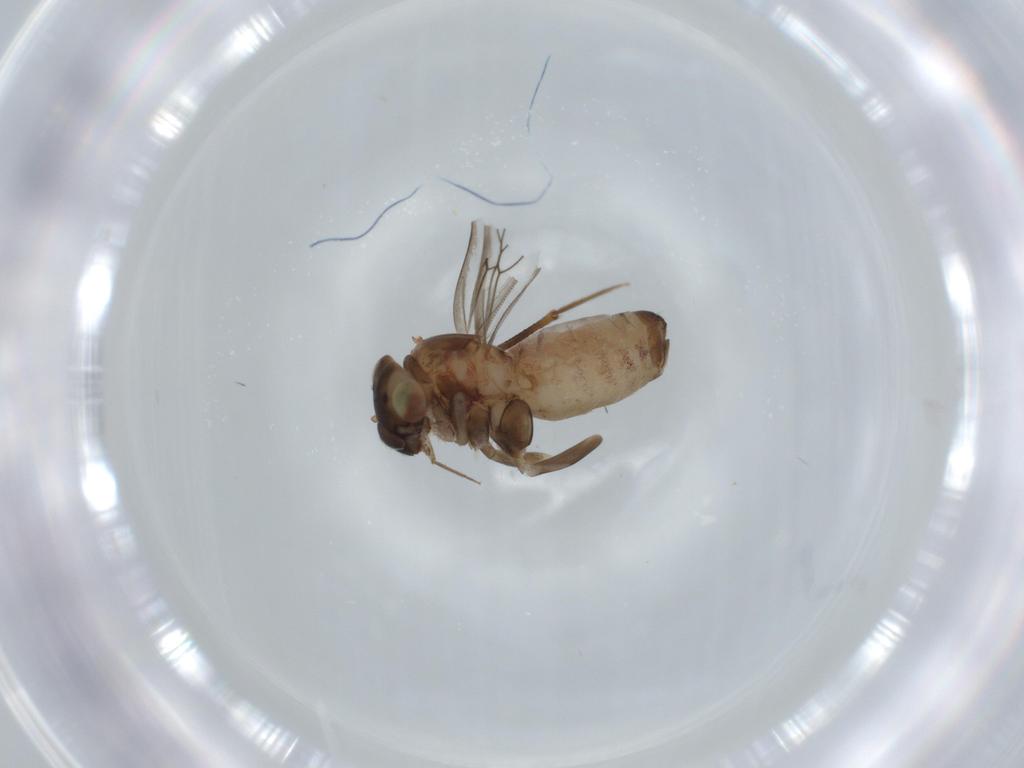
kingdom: Animalia
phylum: Arthropoda
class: Insecta
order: Psocodea
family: Lepidopsocidae
